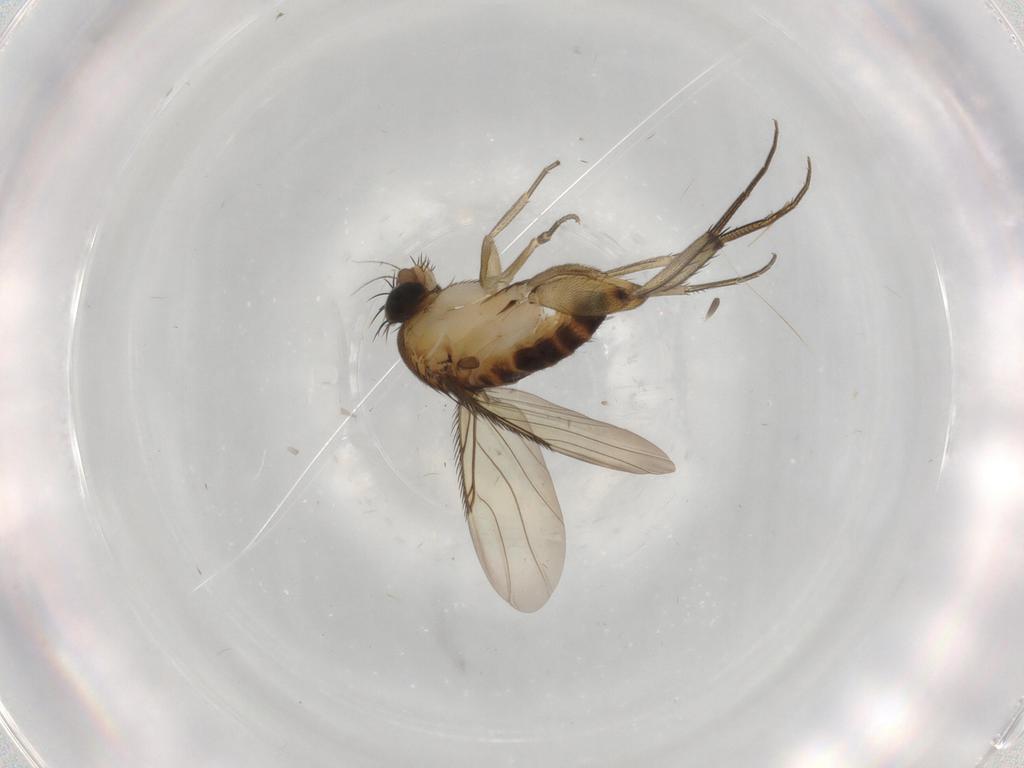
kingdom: Animalia
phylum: Arthropoda
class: Insecta
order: Diptera
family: Phoridae
